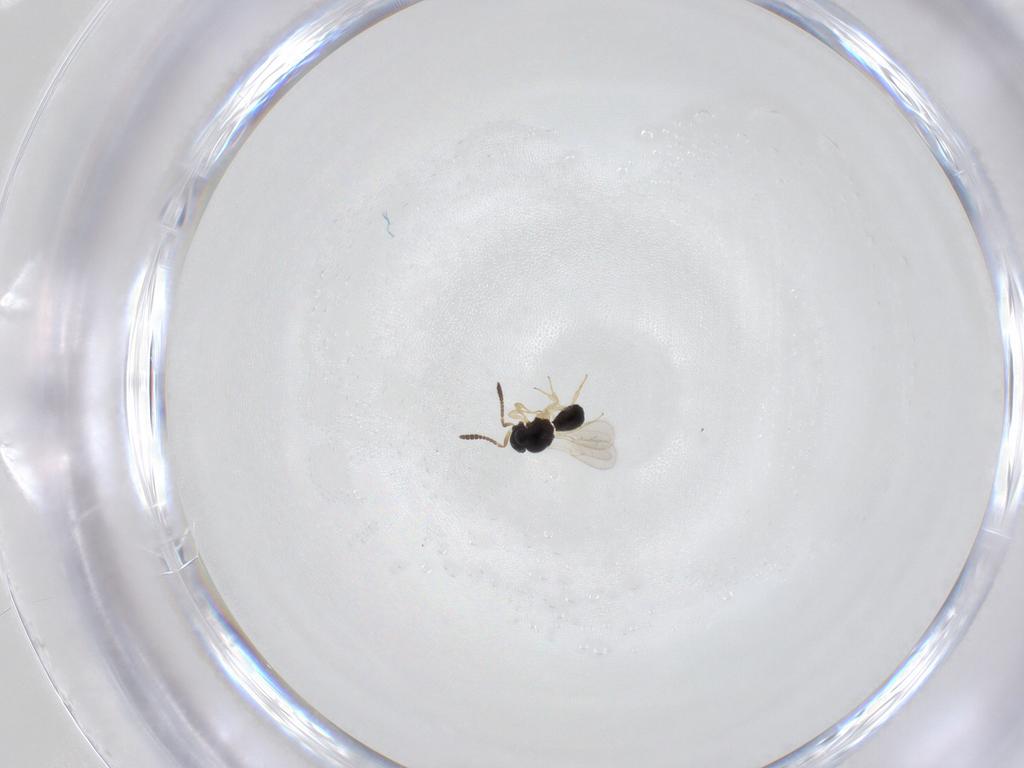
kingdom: Animalia
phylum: Arthropoda
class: Insecta
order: Hymenoptera
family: Scelionidae
